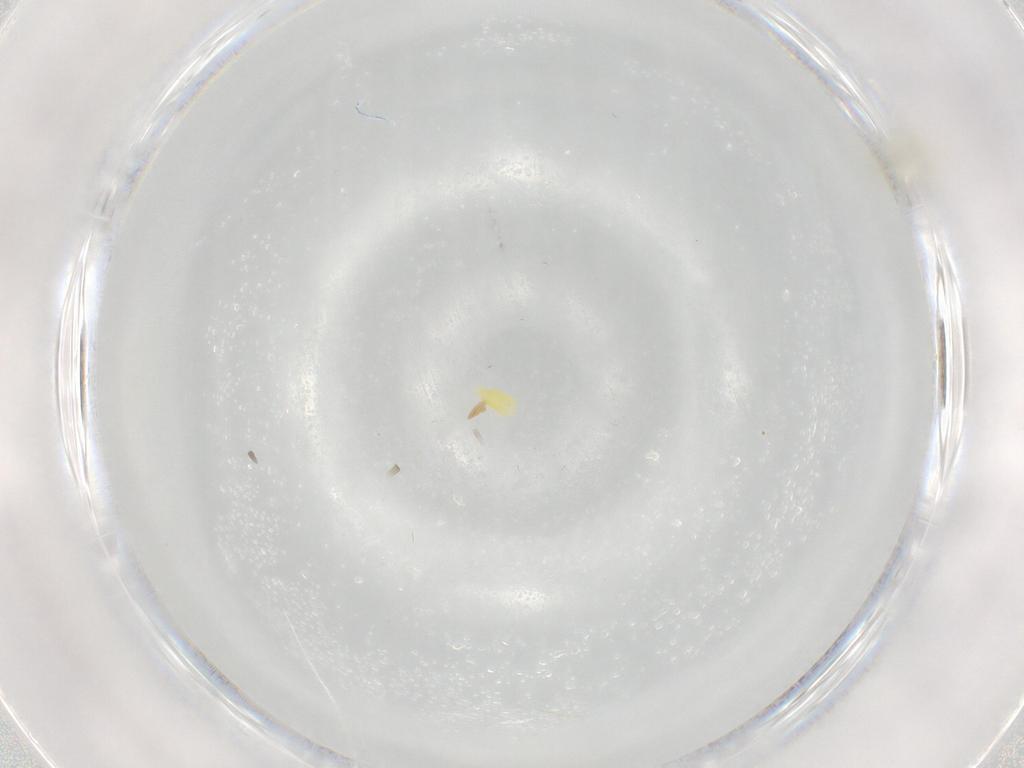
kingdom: Animalia
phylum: Arthropoda
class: Insecta
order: Hemiptera
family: Aleyrodidae
